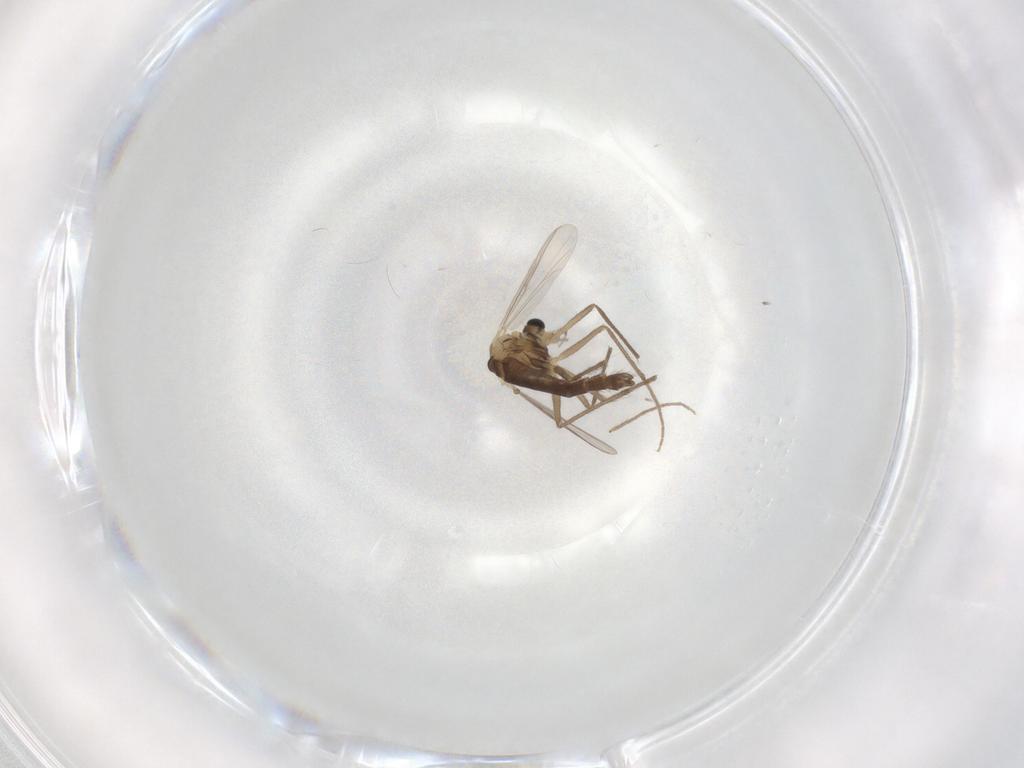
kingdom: Animalia
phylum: Arthropoda
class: Insecta
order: Diptera
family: Chironomidae
